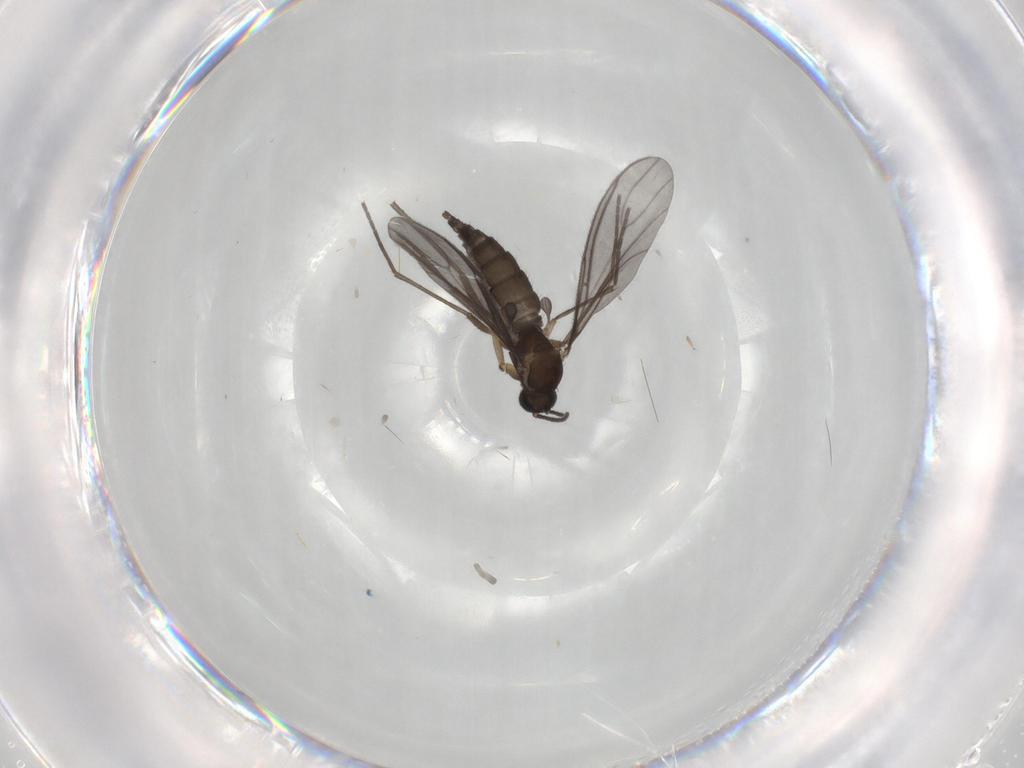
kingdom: Animalia
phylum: Arthropoda
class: Insecta
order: Diptera
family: Sciaridae
